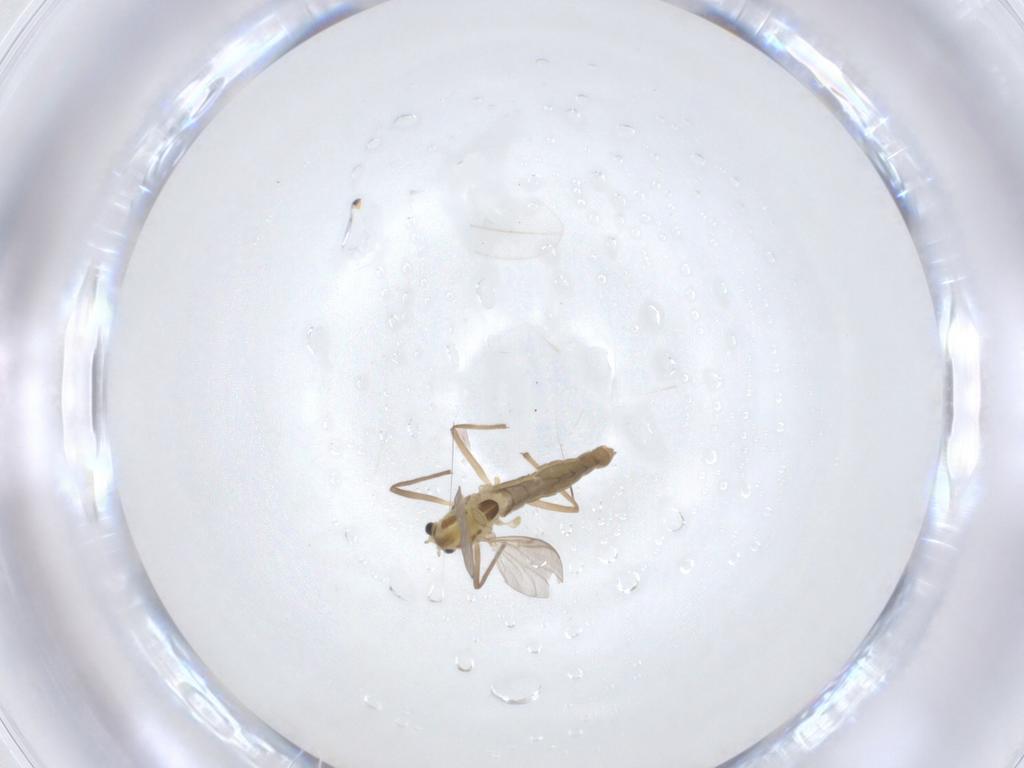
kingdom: Animalia
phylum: Arthropoda
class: Insecta
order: Diptera
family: Chironomidae
